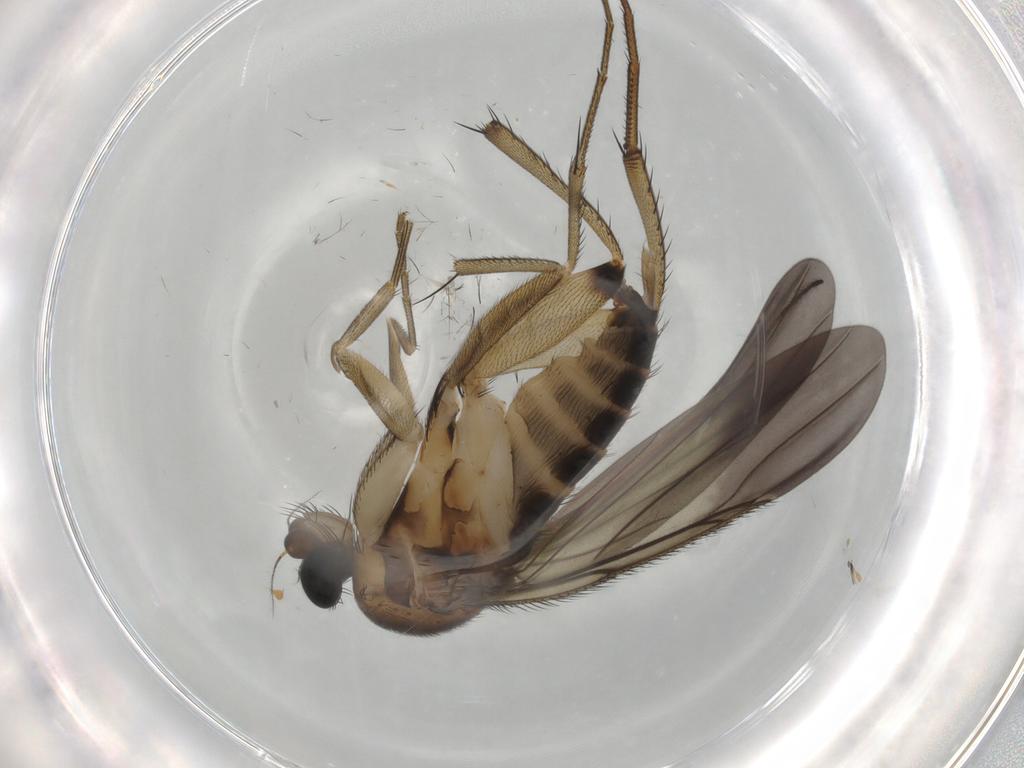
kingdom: Animalia
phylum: Arthropoda
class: Insecta
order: Diptera
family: Phoridae
